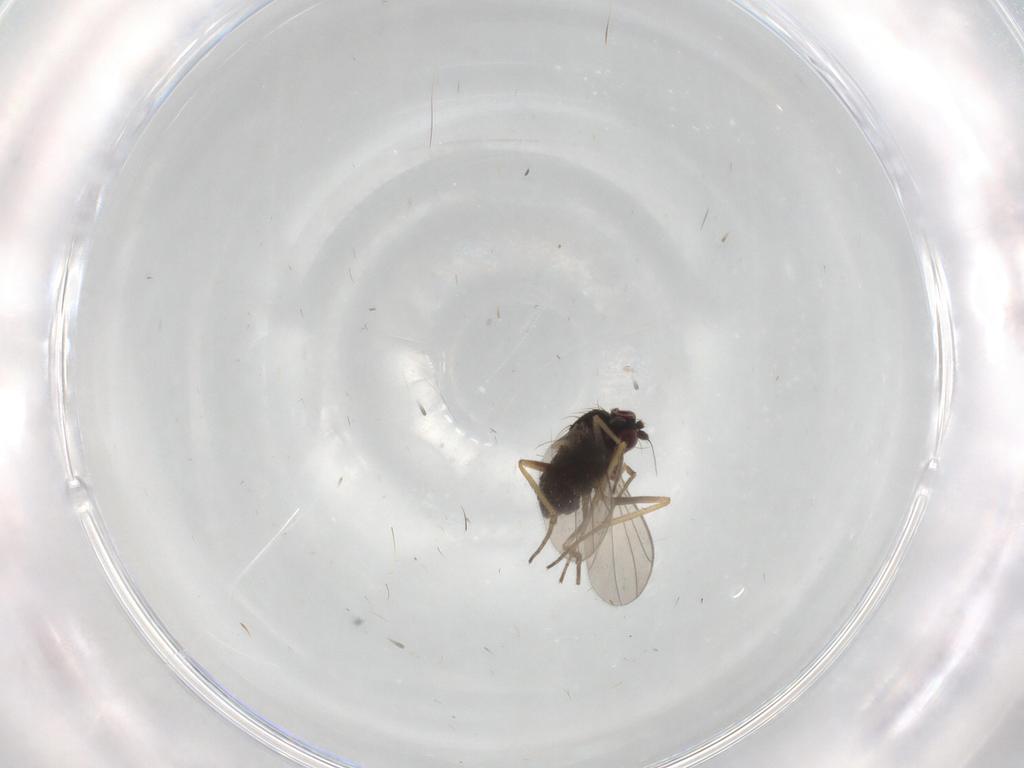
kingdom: Animalia
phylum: Arthropoda
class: Insecta
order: Diptera
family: Dolichopodidae
